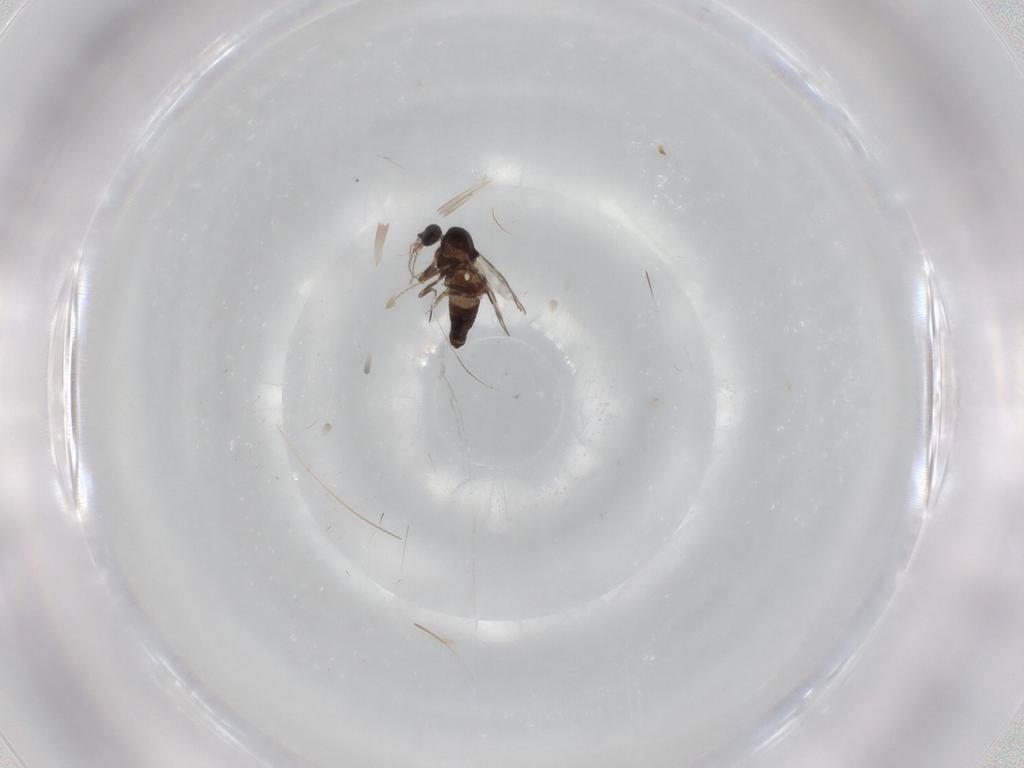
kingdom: Animalia
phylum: Arthropoda
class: Insecta
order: Diptera
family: Ceratopogonidae
